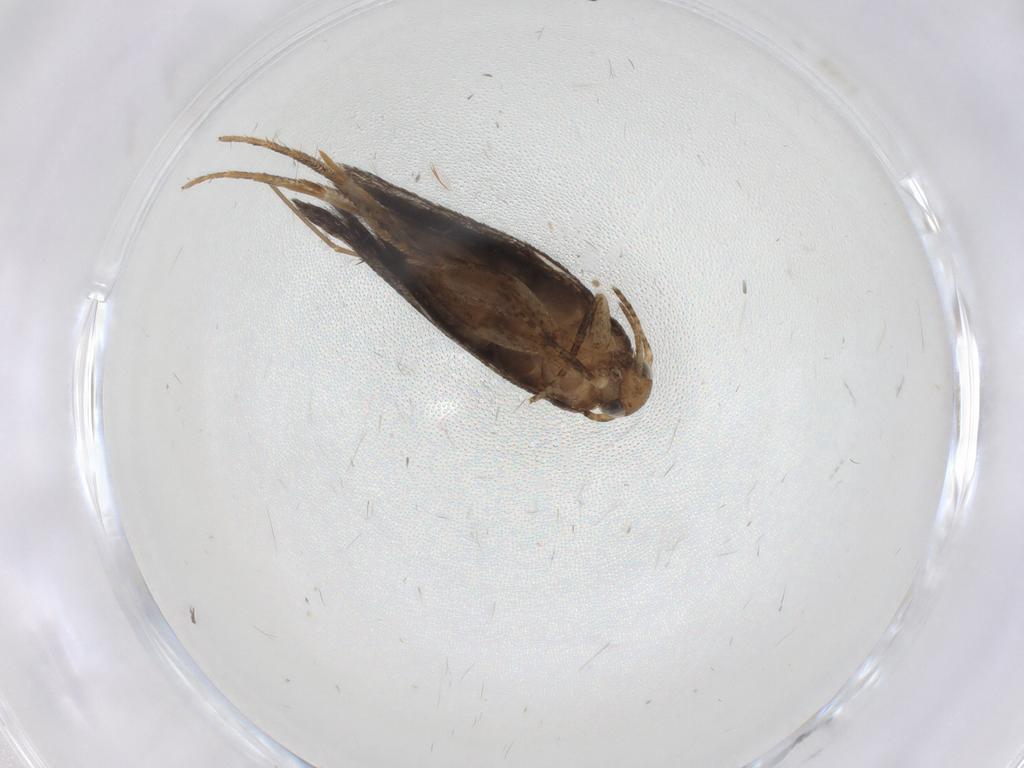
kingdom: Animalia
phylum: Arthropoda
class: Insecta
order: Lepidoptera
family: Gelechiidae
